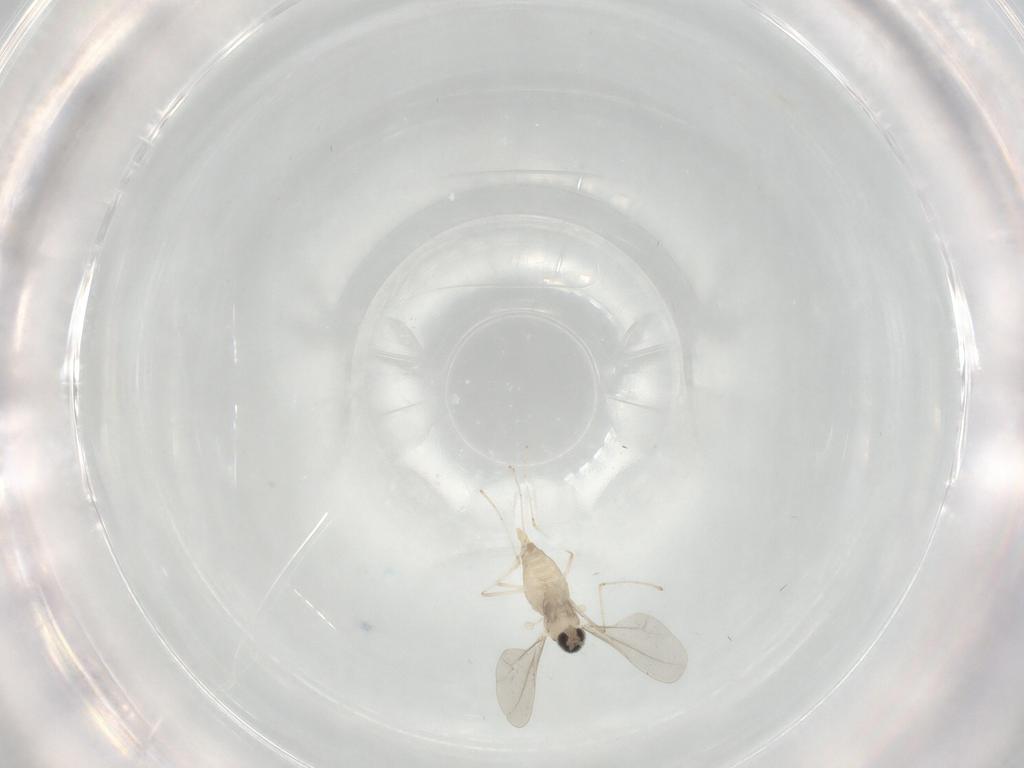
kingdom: Animalia
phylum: Arthropoda
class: Insecta
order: Diptera
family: Cecidomyiidae
